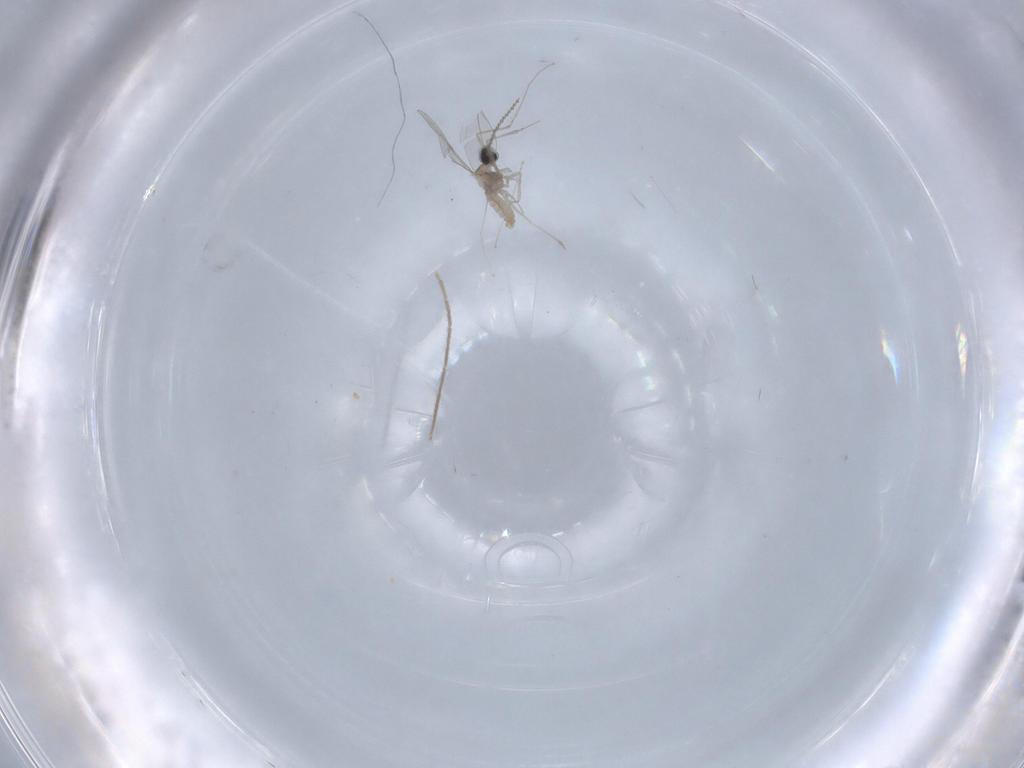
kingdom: Animalia
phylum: Arthropoda
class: Insecta
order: Diptera
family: Cecidomyiidae
